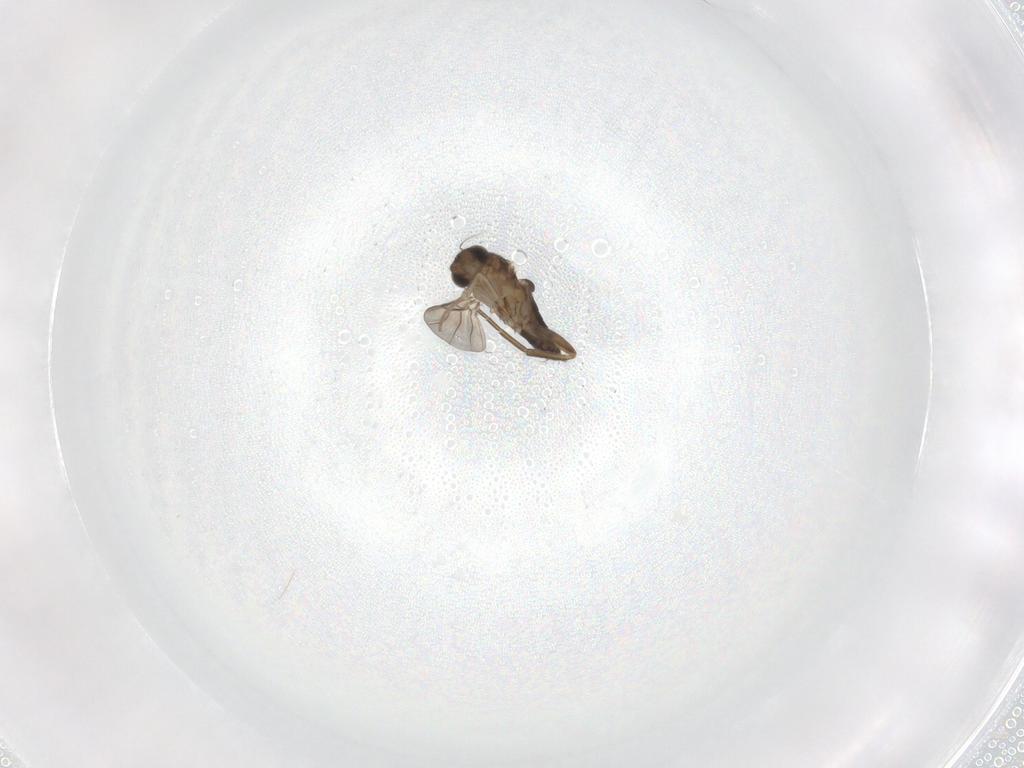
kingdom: Animalia
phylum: Arthropoda
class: Insecta
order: Diptera
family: Phoridae
